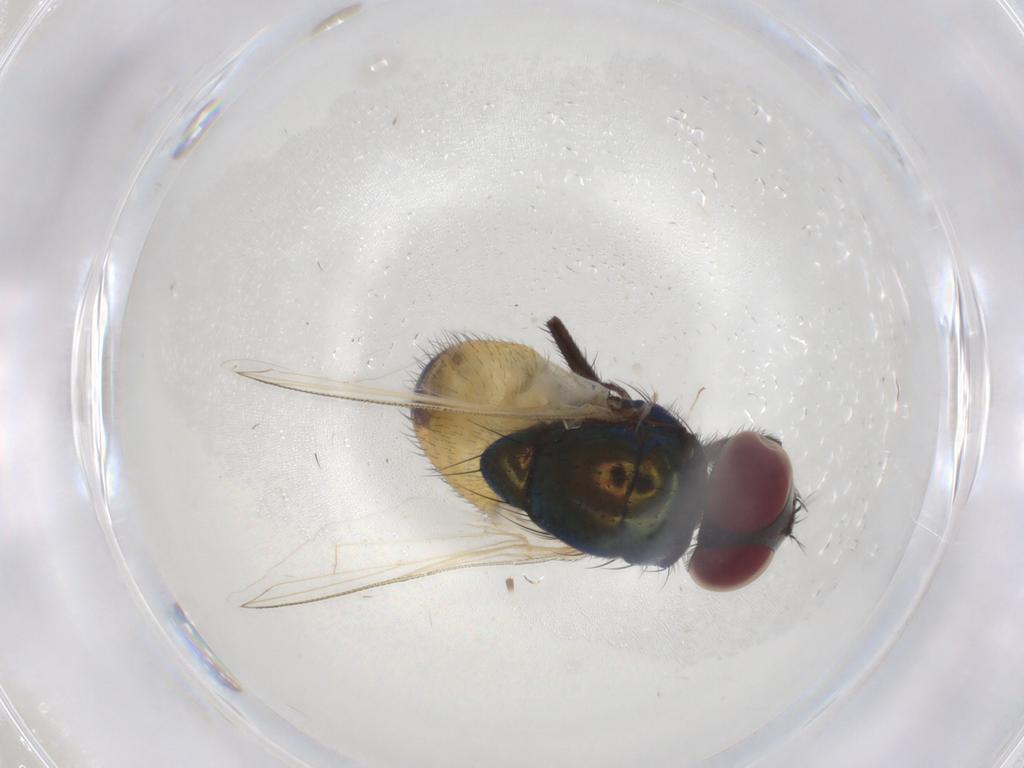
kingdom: Animalia
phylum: Arthropoda
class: Insecta
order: Diptera
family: Muscidae
